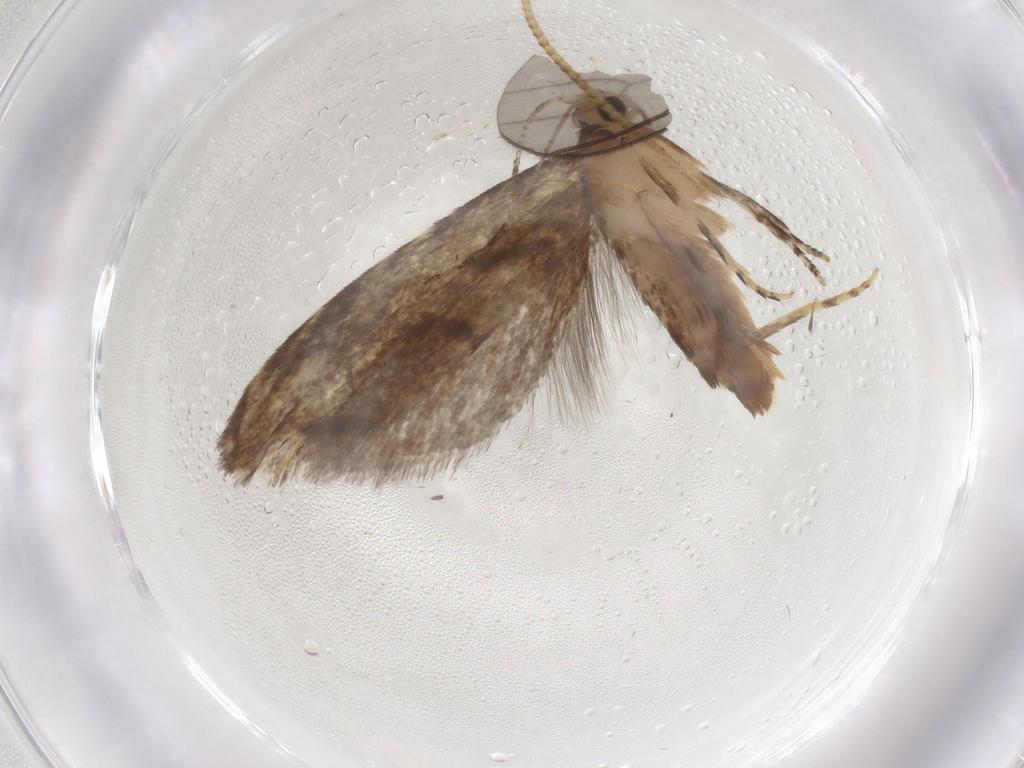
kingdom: Animalia
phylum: Arthropoda
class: Insecta
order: Lepidoptera
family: Tineidae
